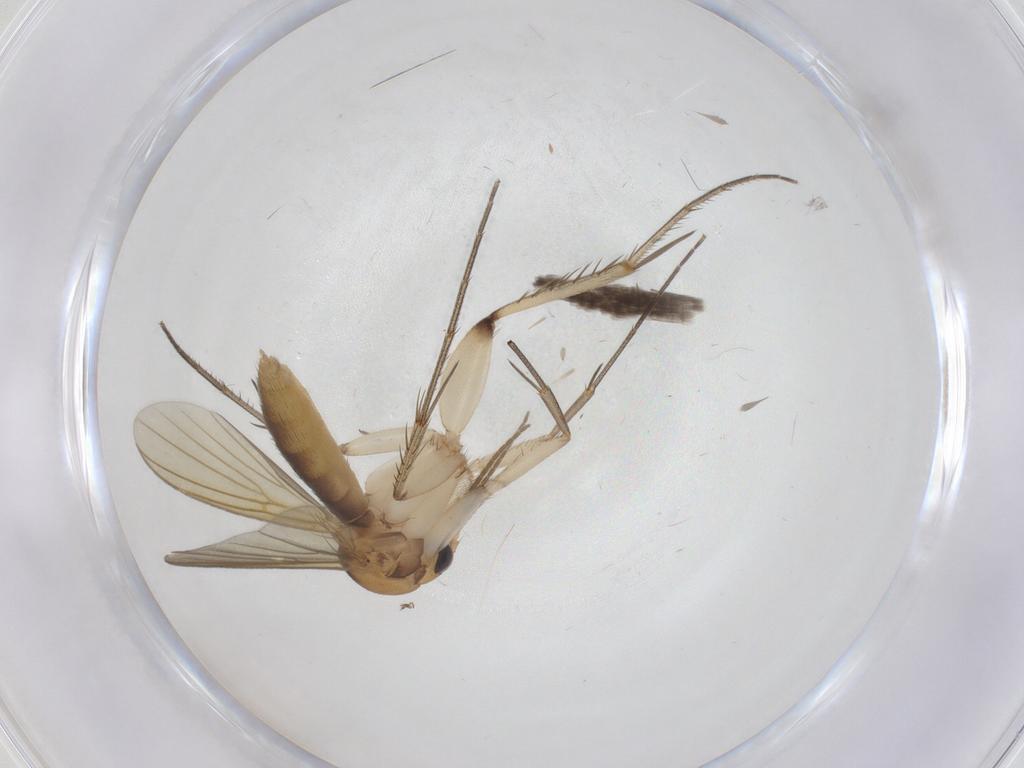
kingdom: Animalia
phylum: Arthropoda
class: Insecta
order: Diptera
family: Mycetophilidae
